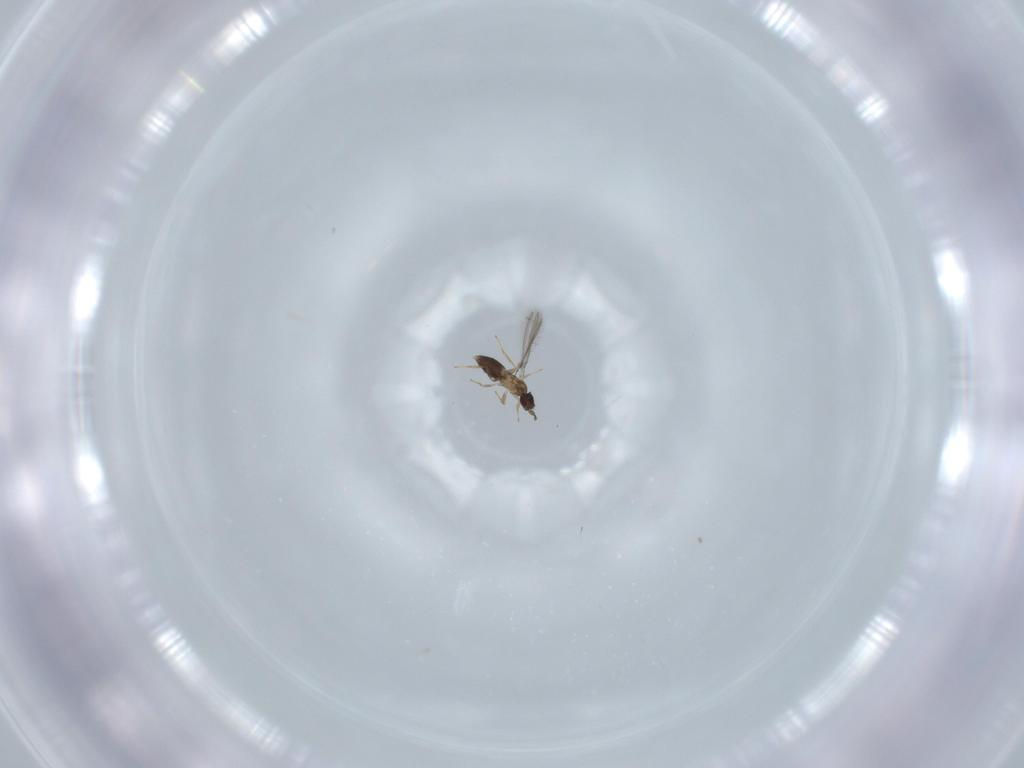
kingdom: Animalia
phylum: Arthropoda
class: Insecta
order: Hymenoptera
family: Mymaridae
